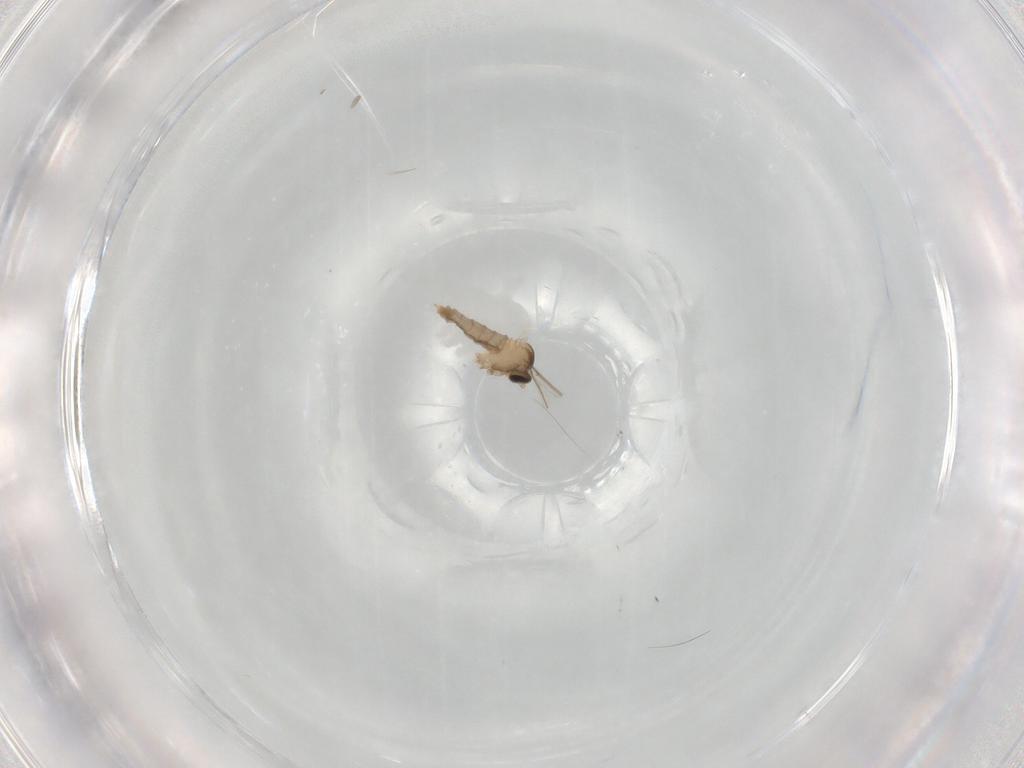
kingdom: Animalia
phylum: Arthropoda
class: Insecta
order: Diptera
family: Cecidomyiidae
